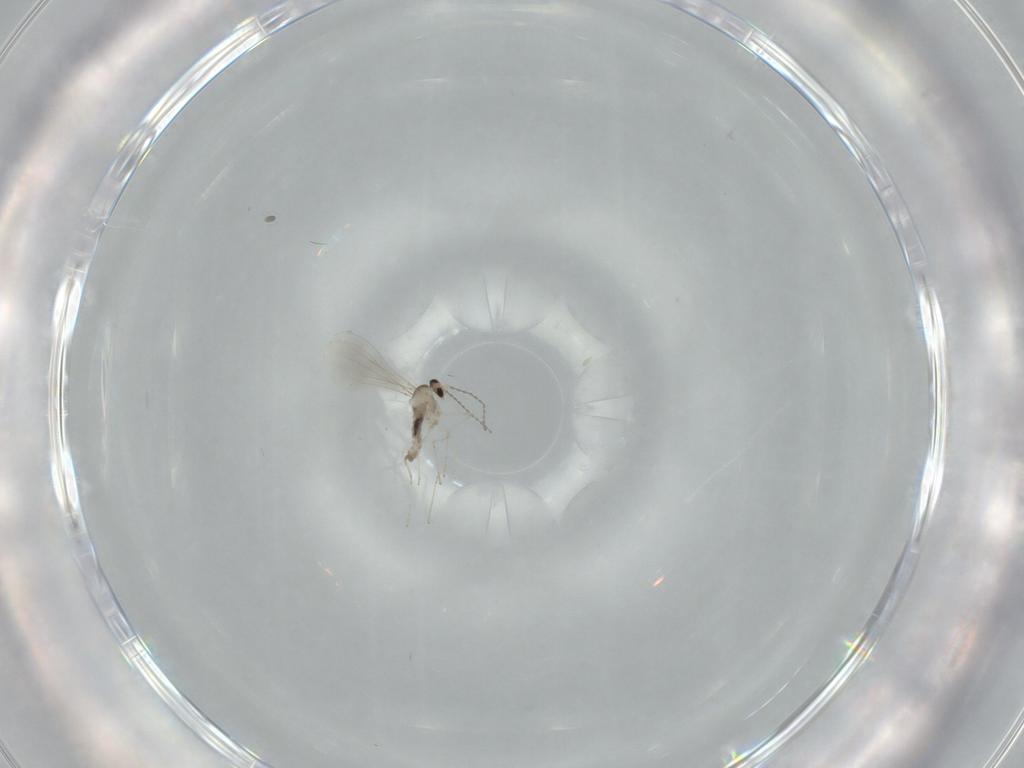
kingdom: Animalia
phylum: Arthropoda
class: Insecta
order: Diptera
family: Cecidomyiidae
